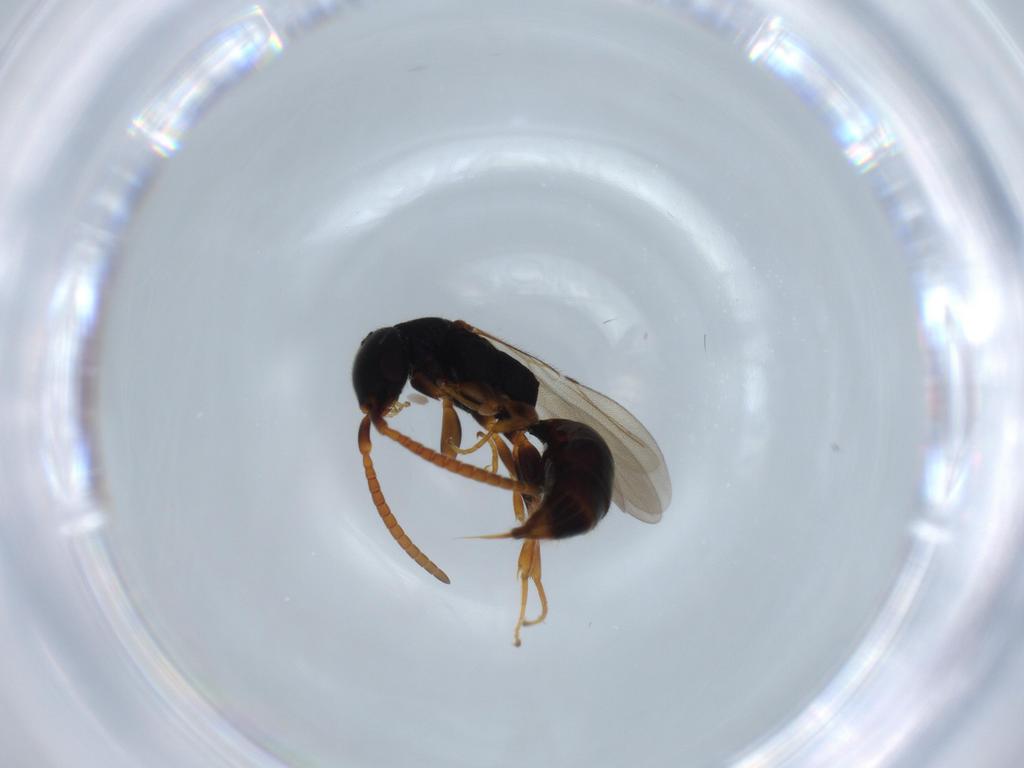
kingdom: Animalia
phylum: Arthropoda
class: Insecta
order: Hymenoptera
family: Bethylidae
